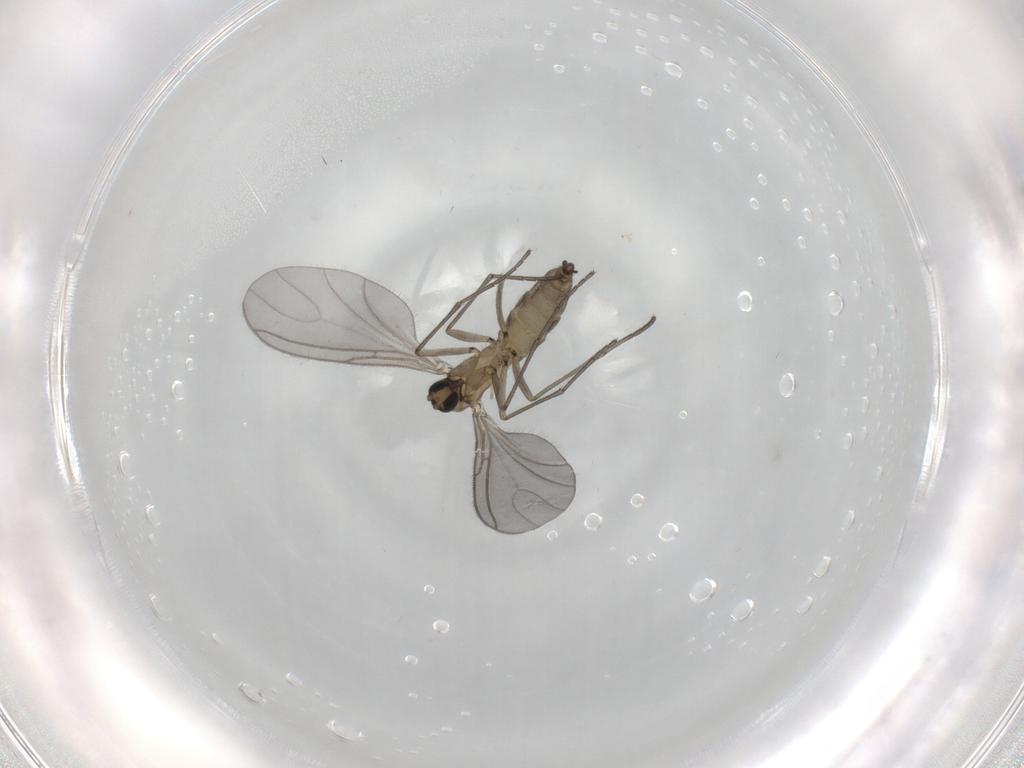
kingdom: Animalia
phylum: Arthropoda
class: Insecta
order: Diptera
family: Sciaridae
